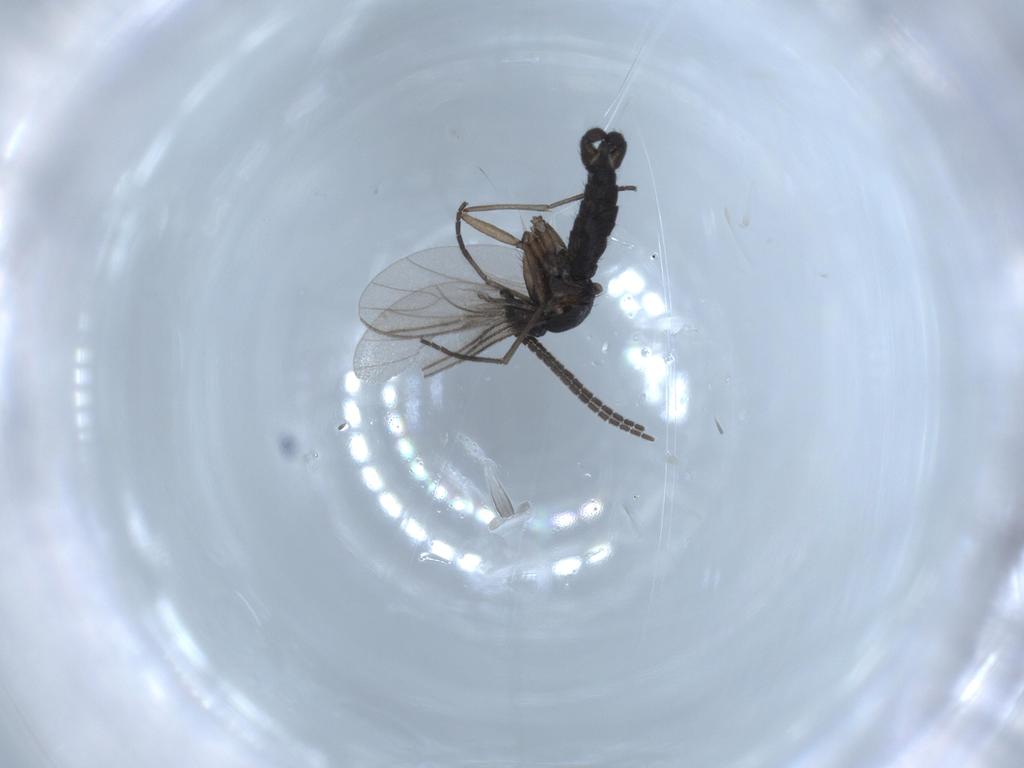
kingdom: Animalia
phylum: Arthropoda
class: Insecta
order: Diptera
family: Sciaridae
